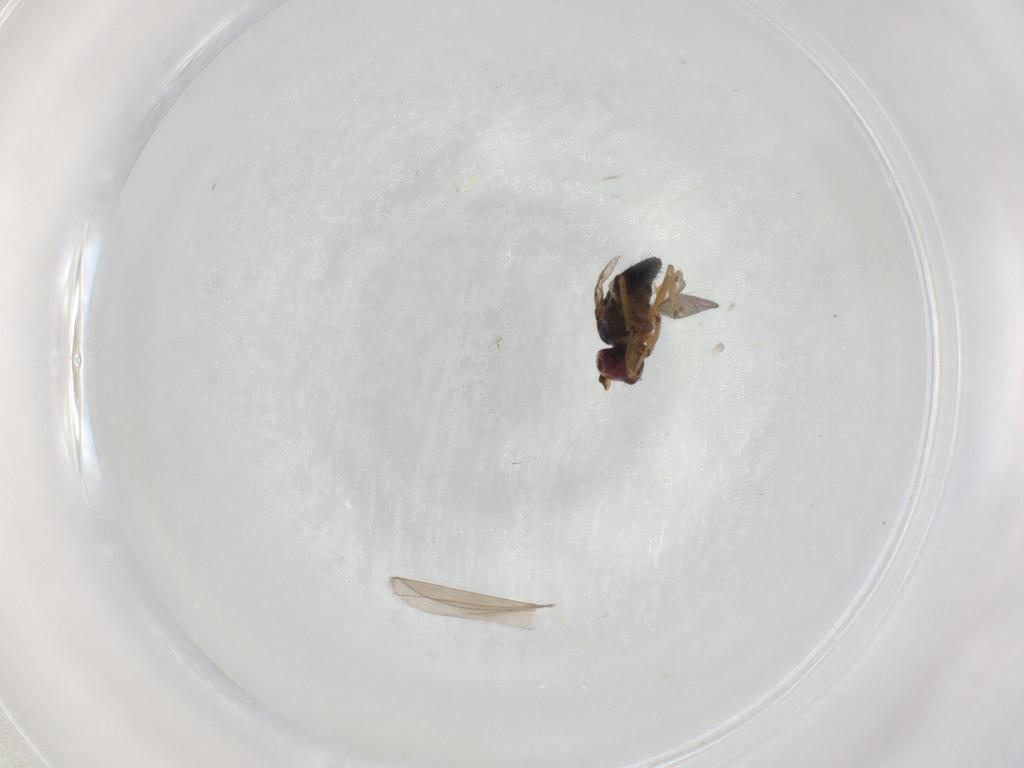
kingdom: Animalia
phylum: Arthropoda
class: Insecta
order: Diptera
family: Ephydridae
